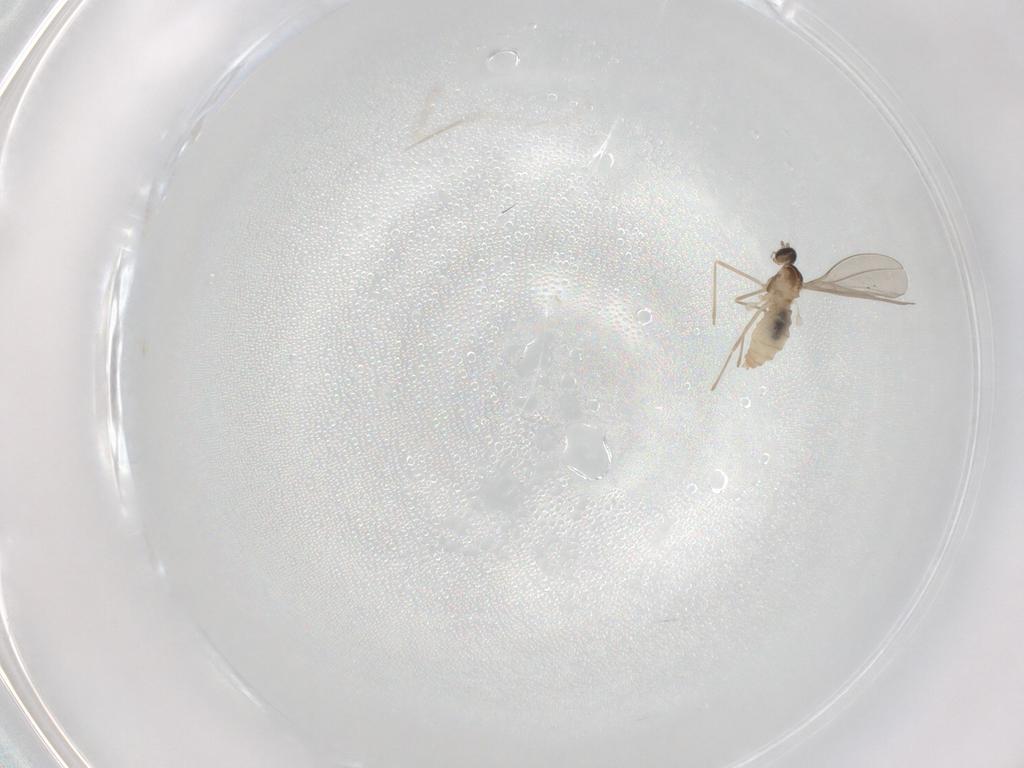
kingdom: Animalia
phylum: Arthropoda
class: Insecta
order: Diptera
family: Cecidomyiidae
